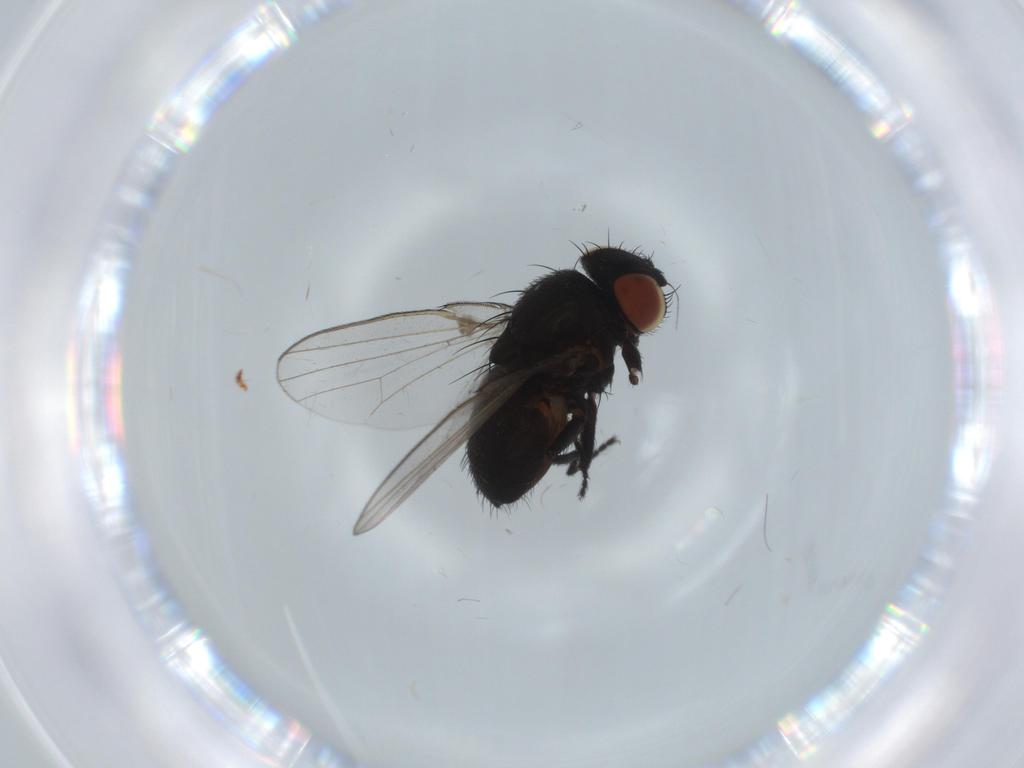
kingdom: Animalia
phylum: Arthropoda
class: Insecta
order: Diptera
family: Milichiidae
